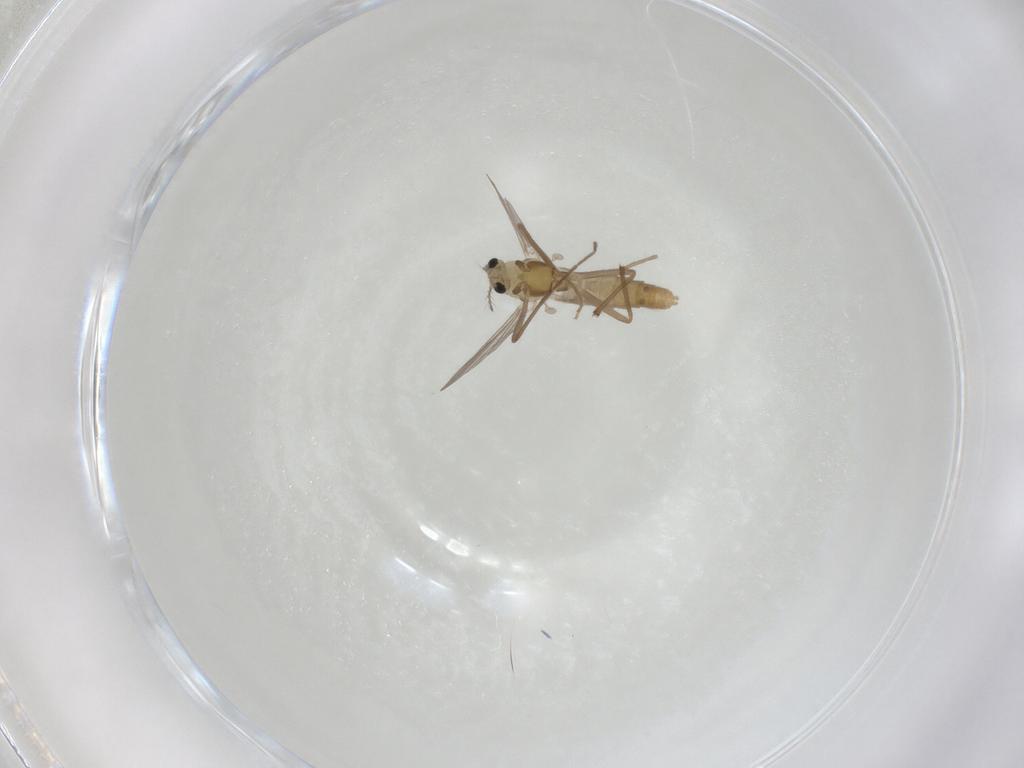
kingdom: Animalia
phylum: Arthropoda
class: Insecta
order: Diptera
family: Chironomidae
